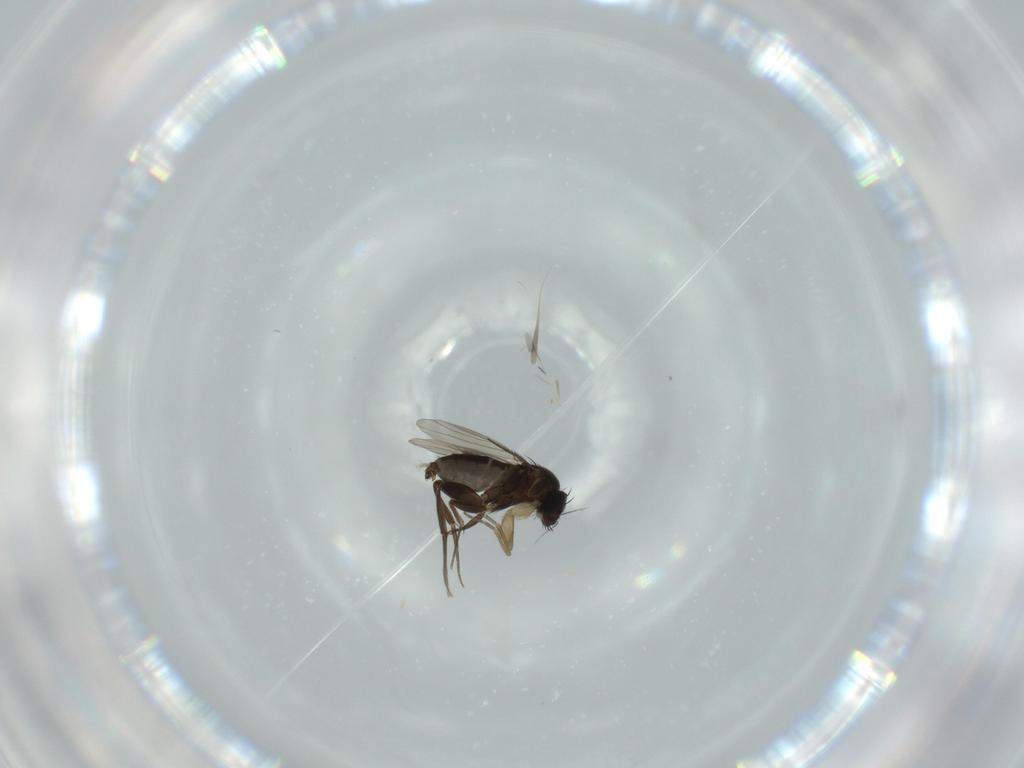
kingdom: Animalia
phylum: Arthropoda
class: Insecta
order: Diptera
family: Phoridae
